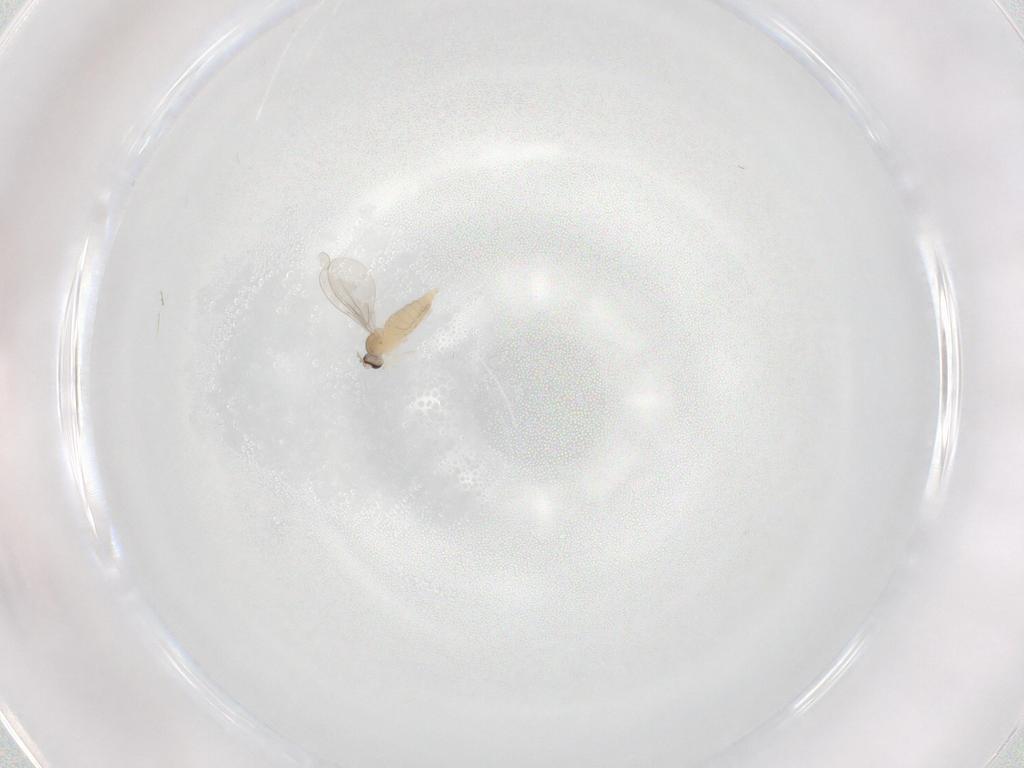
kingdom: Animalia
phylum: Arthropoda
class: Insecta
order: Diptera
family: Cecidomyiidae
